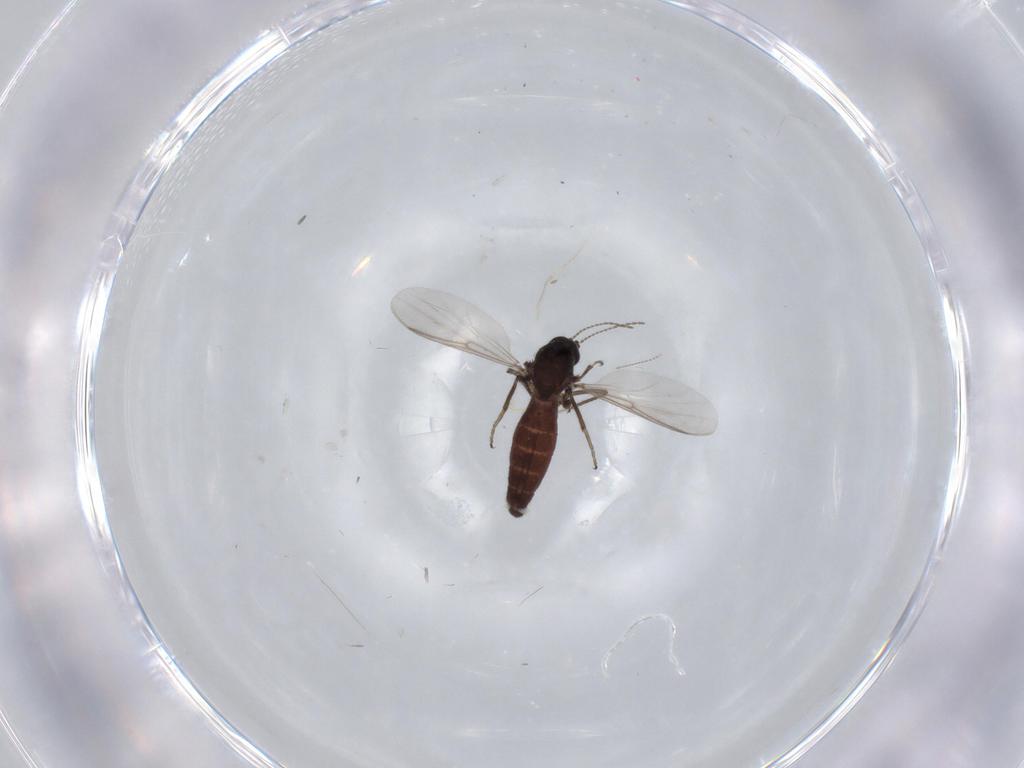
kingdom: Animalia
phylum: Arthropoda
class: Insecta
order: Diptera
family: Ceratopogonidae
